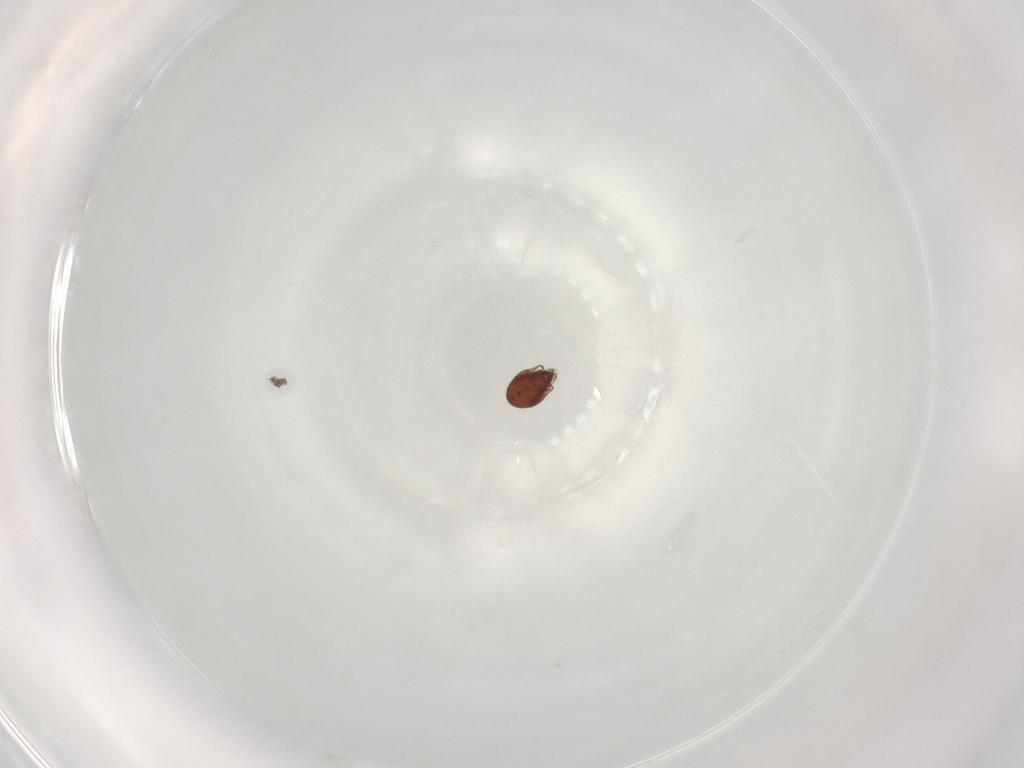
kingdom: Animalia
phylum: Arthropoda
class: Arachnida
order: Sarcoptiformes
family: Ceratozetidae
